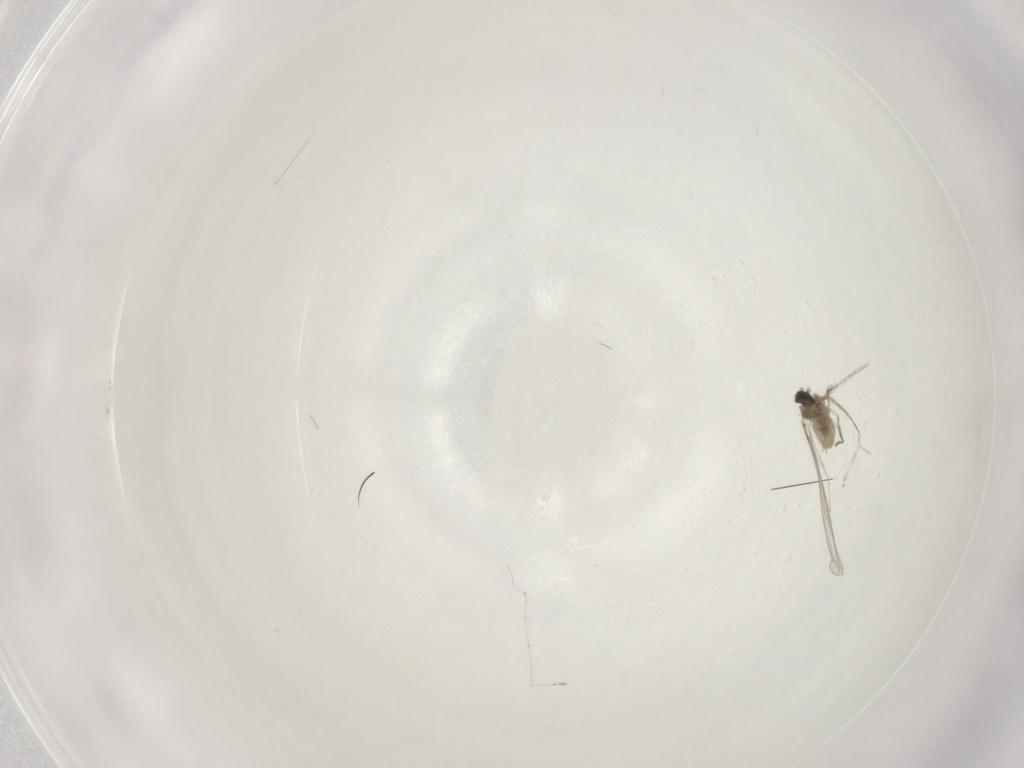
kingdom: Animalia
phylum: Arthropoda
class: Insecta
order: Diptera
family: Cecidomyiidae
